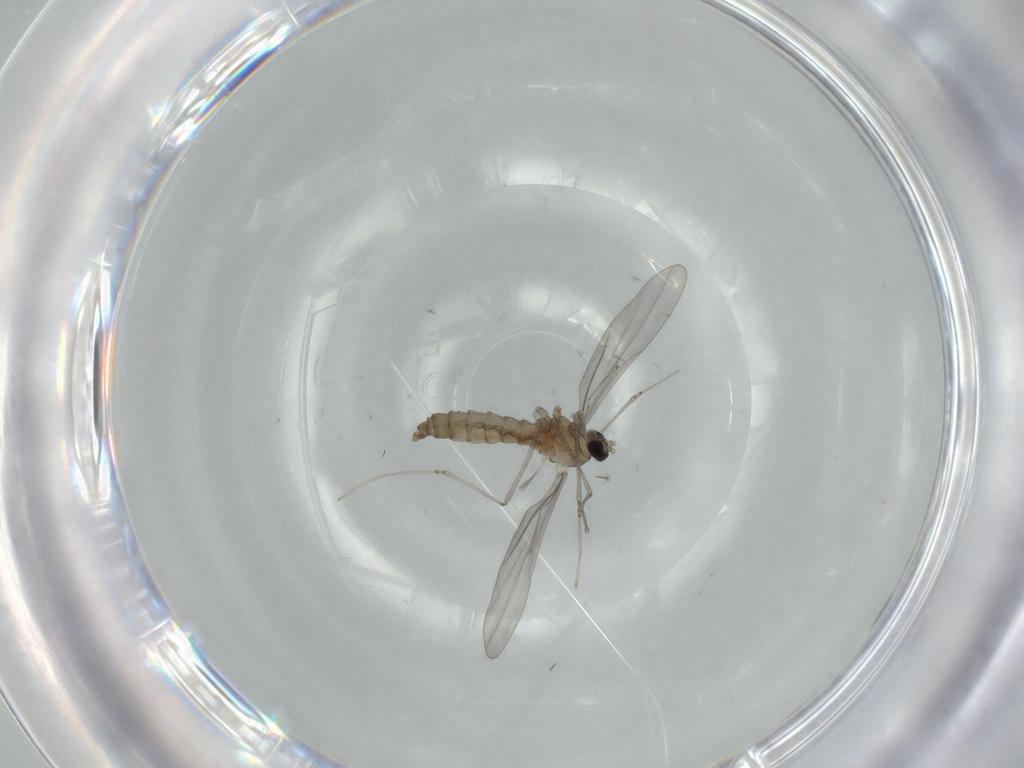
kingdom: Animalia
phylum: Arthropoda
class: Insecta
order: Diptera
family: Cecidomyiidae
